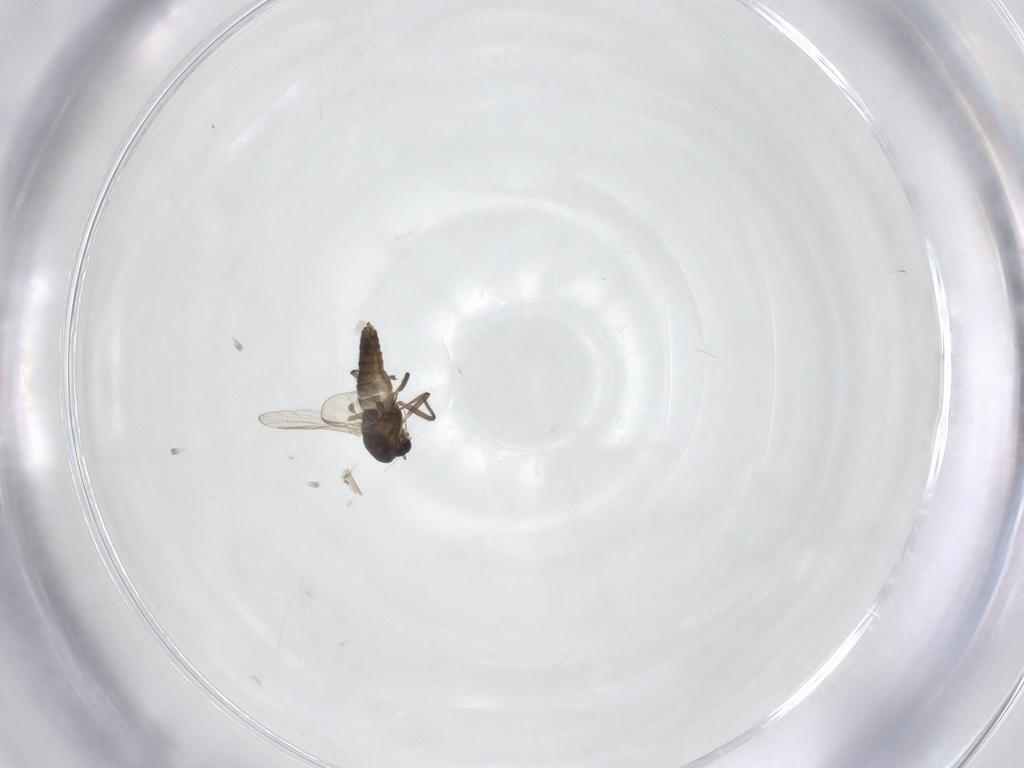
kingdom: Animalia
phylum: Arthropoda
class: Insecta
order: Diptera
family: Chironomidae
